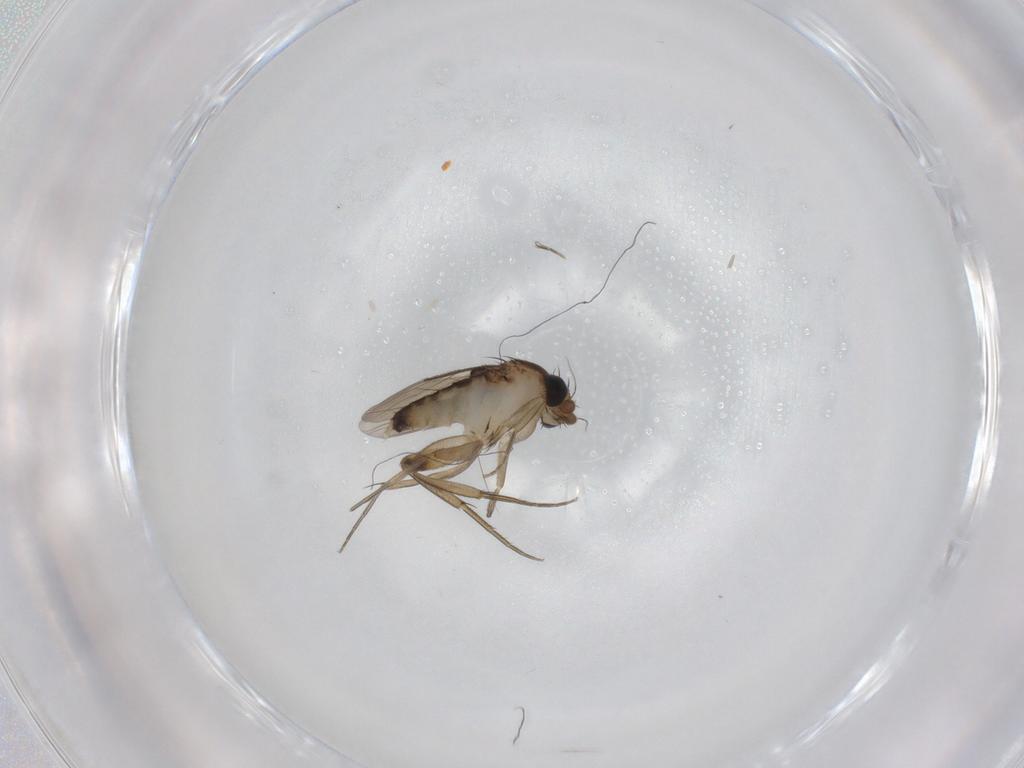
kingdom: Animalia
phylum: Arthropoda
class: Insecta
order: Diptera
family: Phoridae
